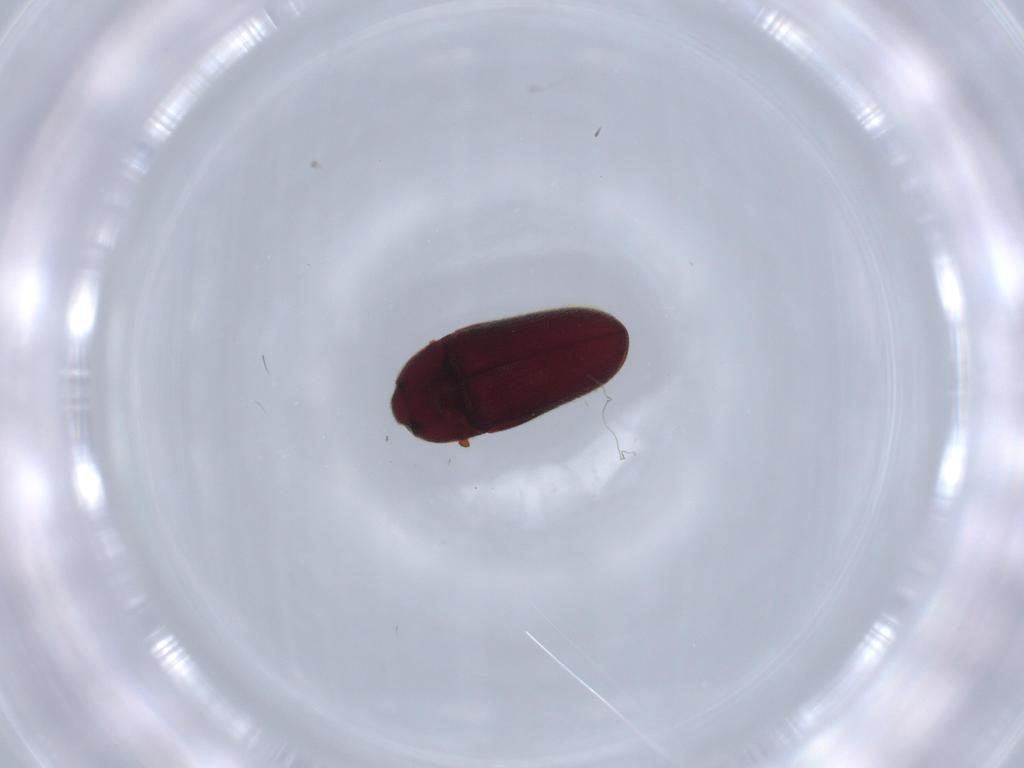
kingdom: Animalia
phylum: Arthropoda
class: Insecta
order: Coleoptera
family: Throscidae
